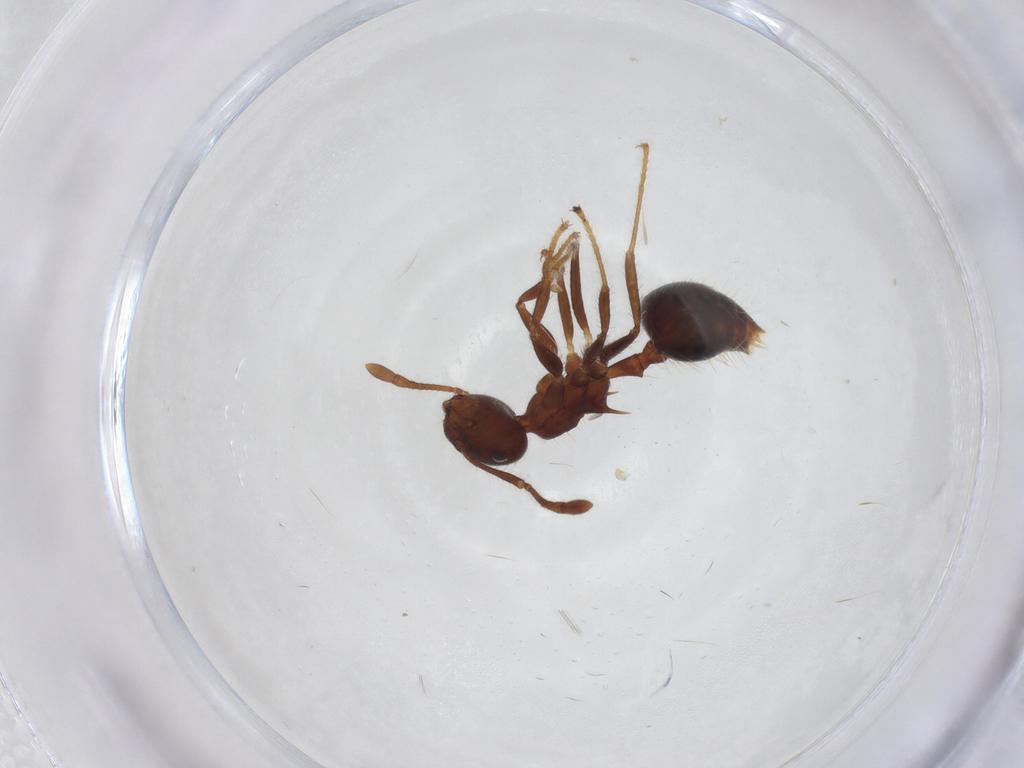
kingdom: Animalia
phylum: Arthropoda
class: Insecta
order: Hymenoptera
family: Formicidae
